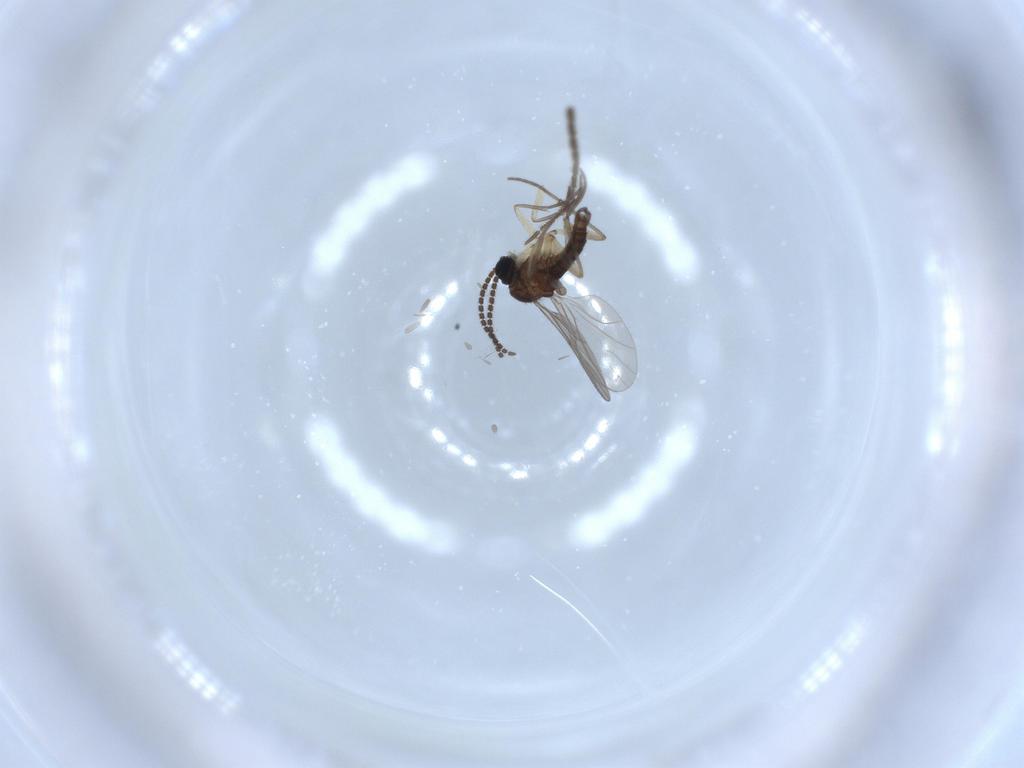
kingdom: Animalia
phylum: Arthropoda
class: Insecta
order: Diptera
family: Sciaridae
